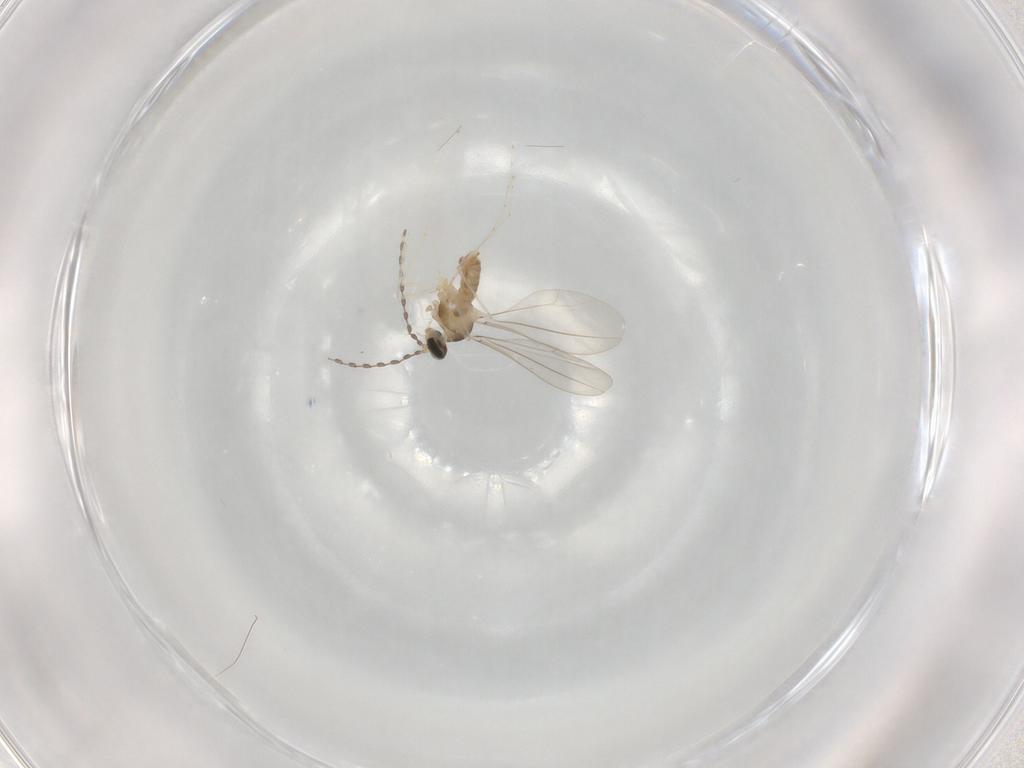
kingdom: Animalia
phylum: Arthropoda
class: Insecta
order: Diptera
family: Cecidomyiidae
